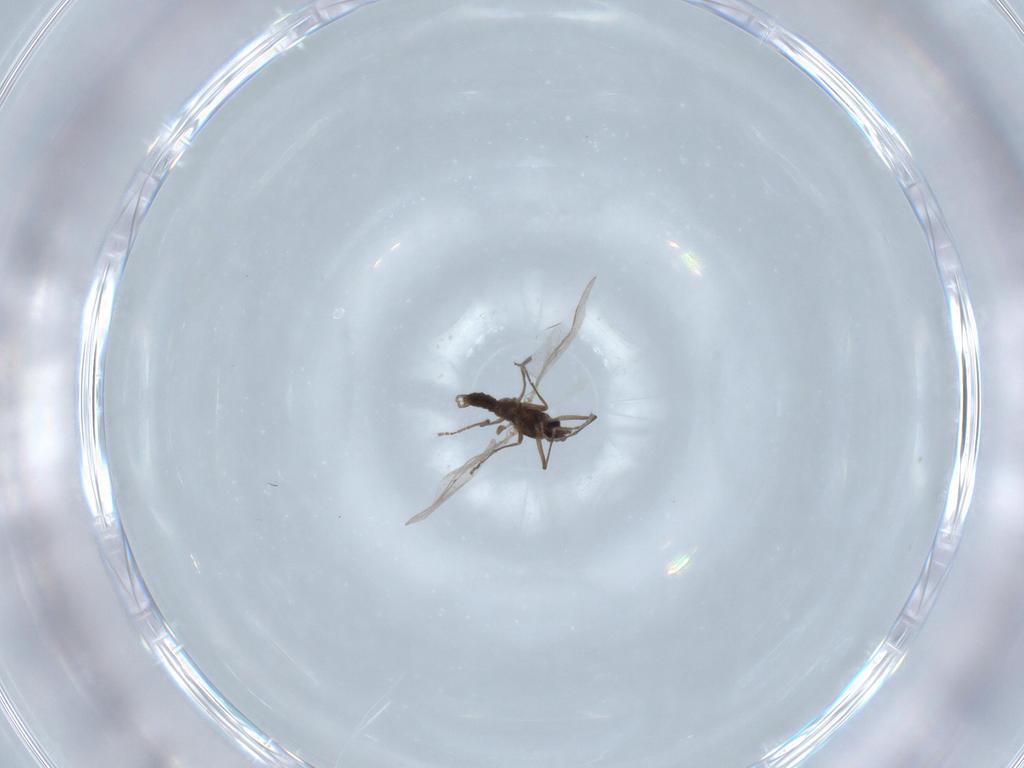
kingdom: Animalia
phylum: Arthropoda
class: Insecta
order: Diptera
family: Cecidomyiidae
